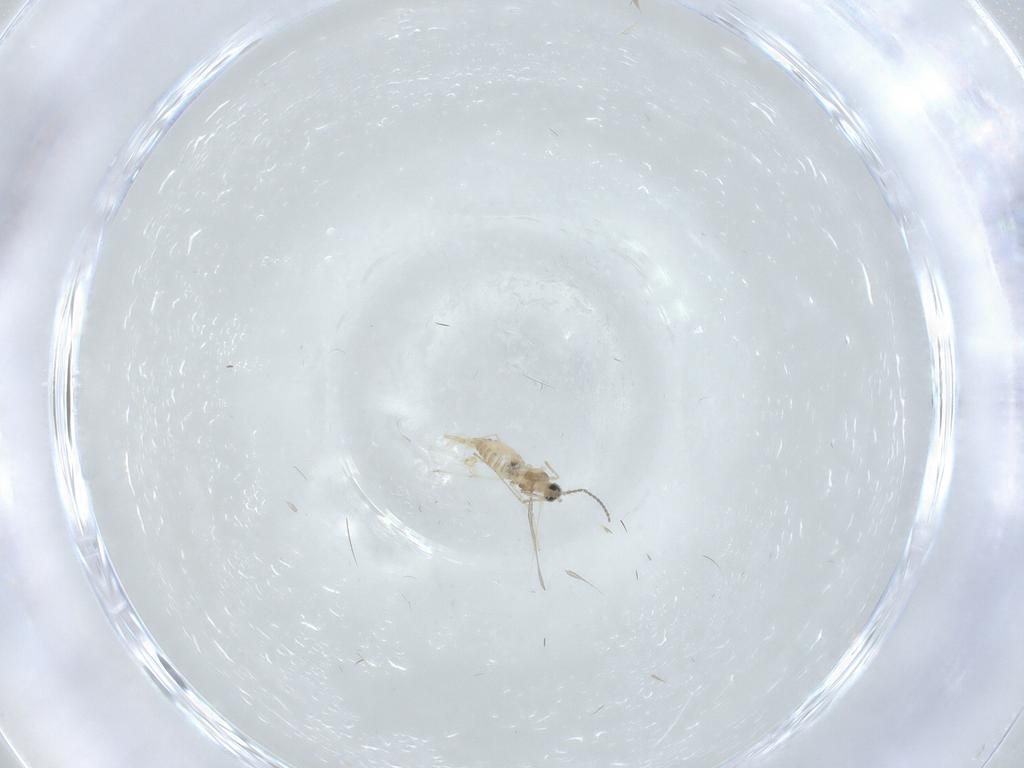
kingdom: Animalia
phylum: Arthropoda
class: Insecta
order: Diptera
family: Cecidomyiidae
